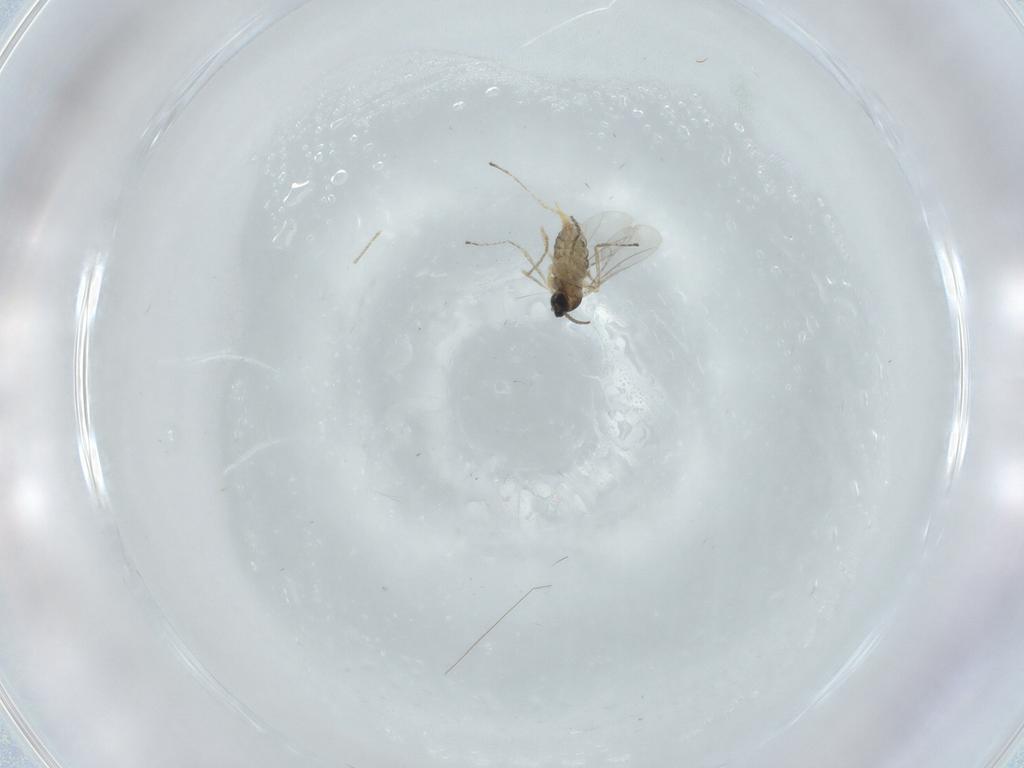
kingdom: Animalia
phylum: Arthropoda
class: Insecta
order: Diptera
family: Cecidomyiidae
